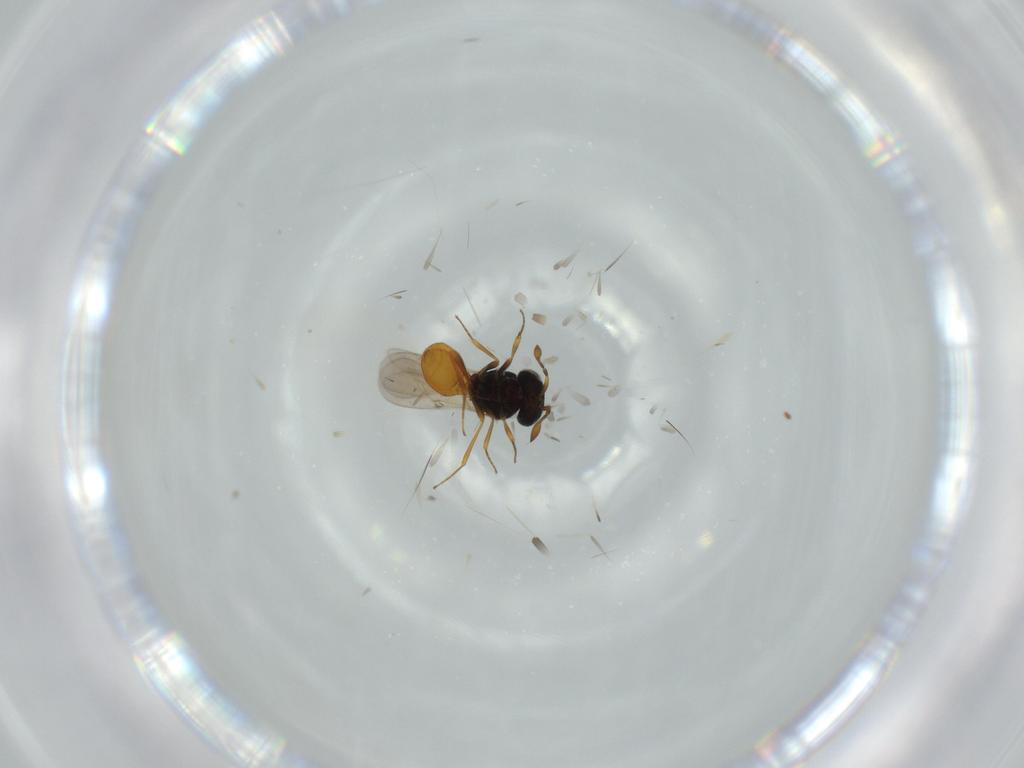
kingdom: Animalia
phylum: Arthropoda
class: Insecta
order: Hymenoptera
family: Scelionidae
